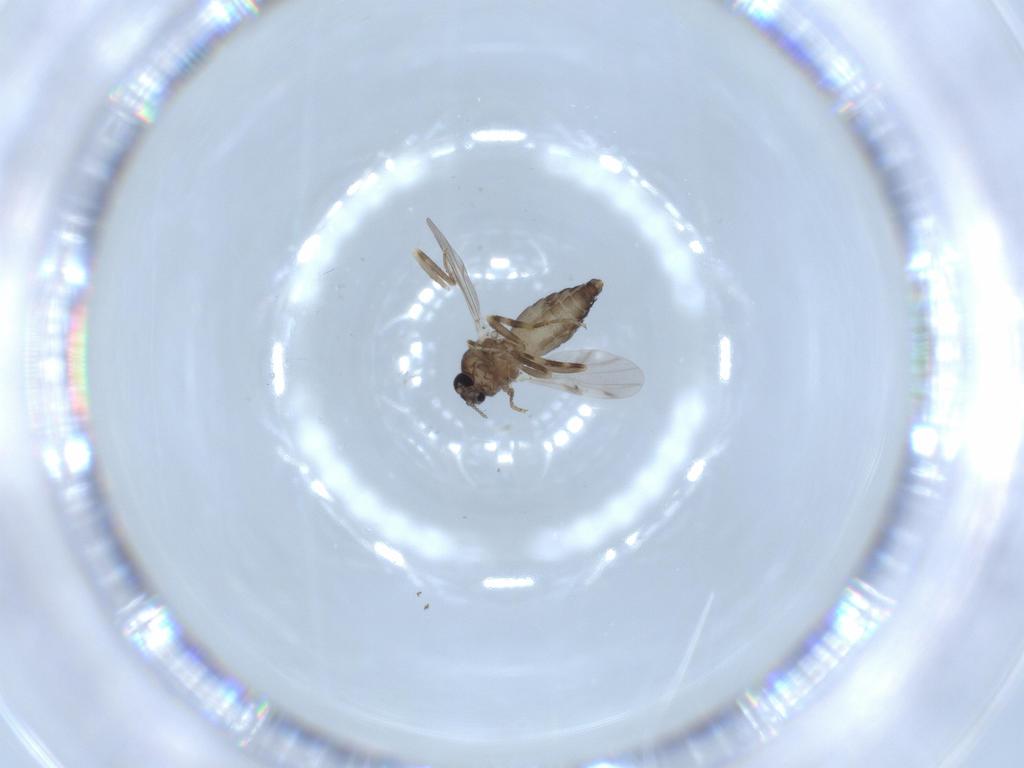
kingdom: Animalia
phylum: Arthropoda
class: Insecta
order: Diptera
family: Ceratopogonidae
